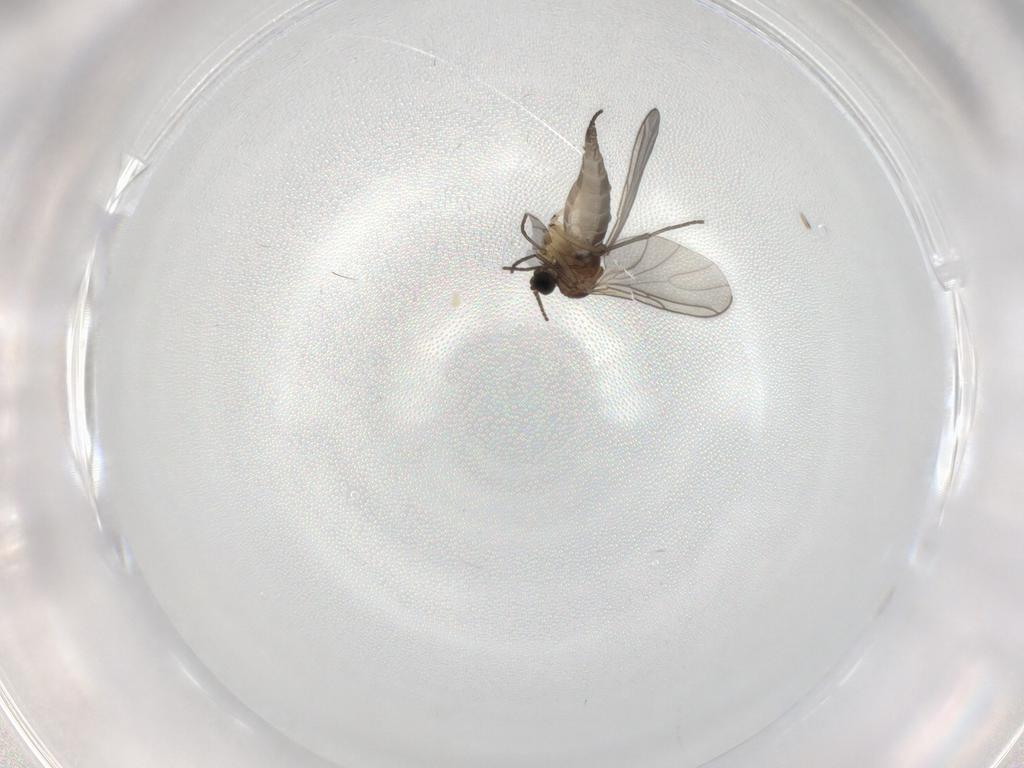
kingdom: Animalia
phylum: Arthropoda
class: Insecta
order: Diptera
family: Sciaridae
